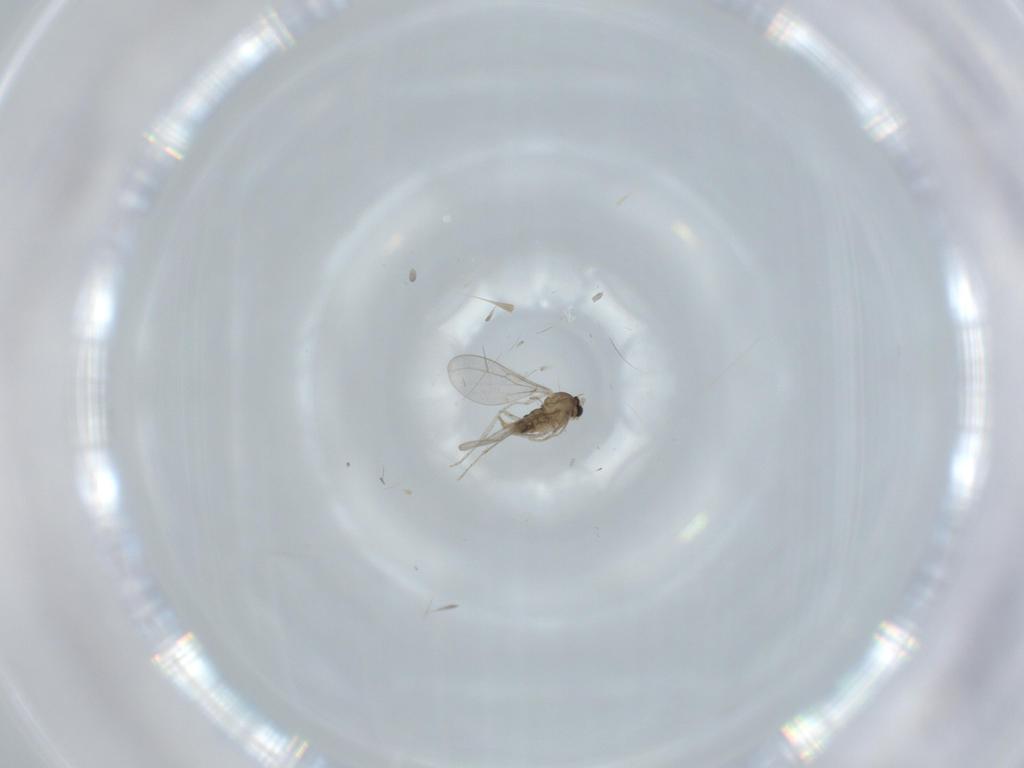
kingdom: Animalia
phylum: Arthropoda
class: Insecta
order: Diptera
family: Cecidomyiidae
